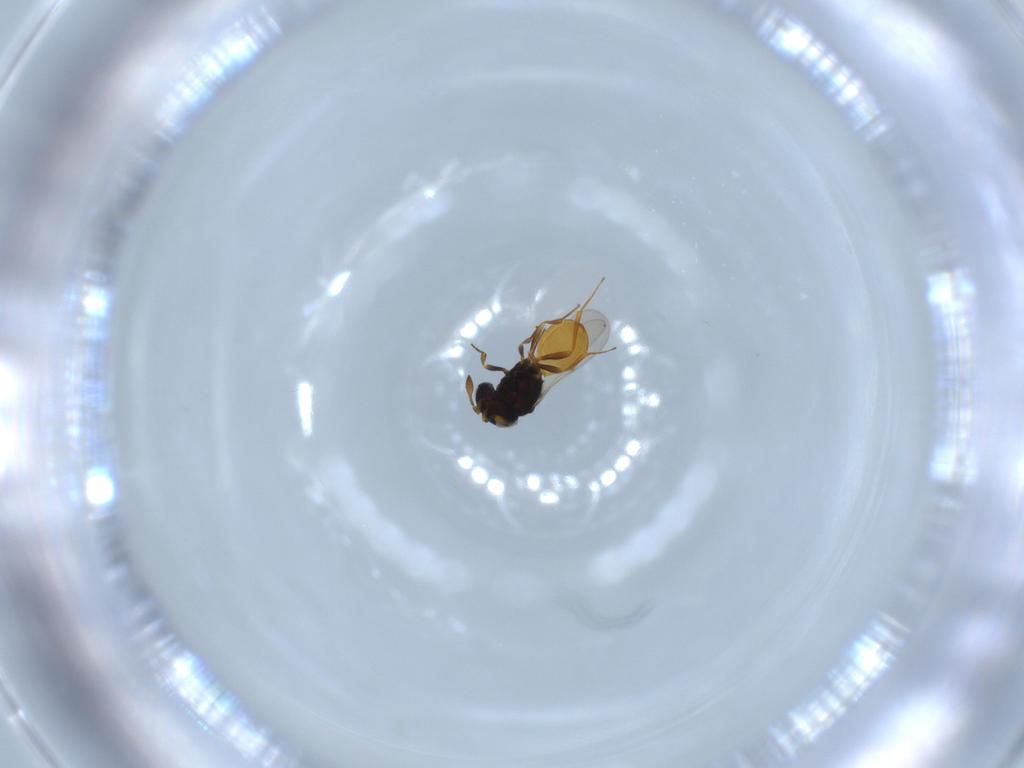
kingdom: Animalia
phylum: Arthropoda
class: Insecta
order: Hymenoptera
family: Scelionidae
